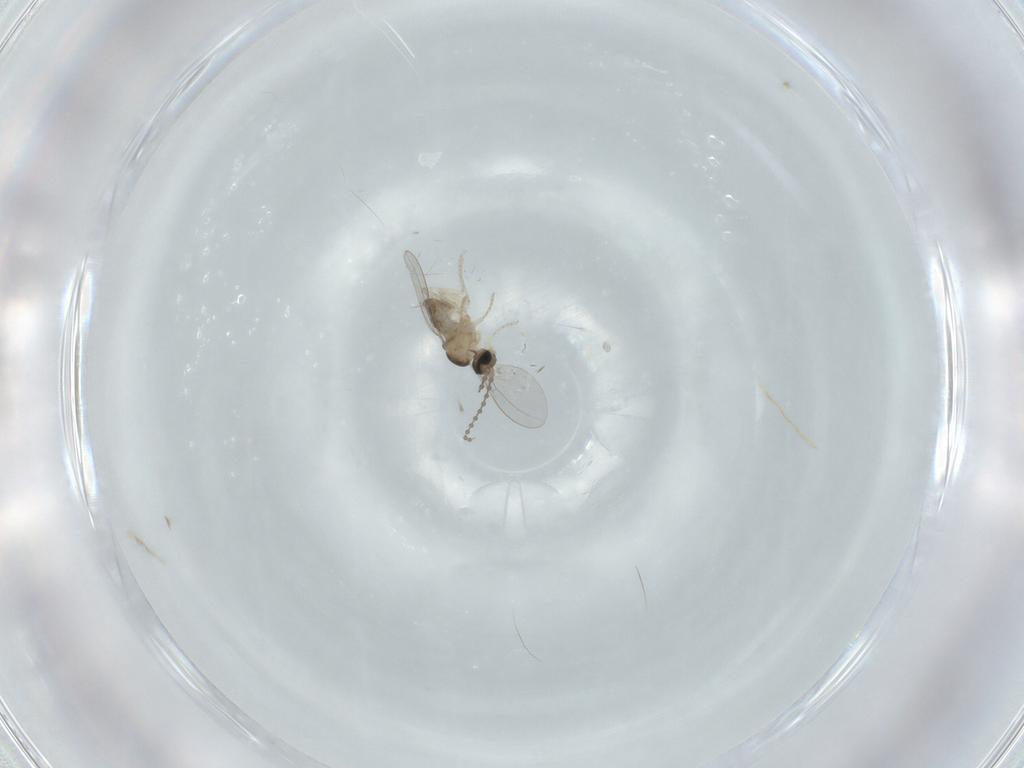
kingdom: Animalia
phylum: Arthropoda
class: Insecta
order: Diptera
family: Cecidomyiidae
